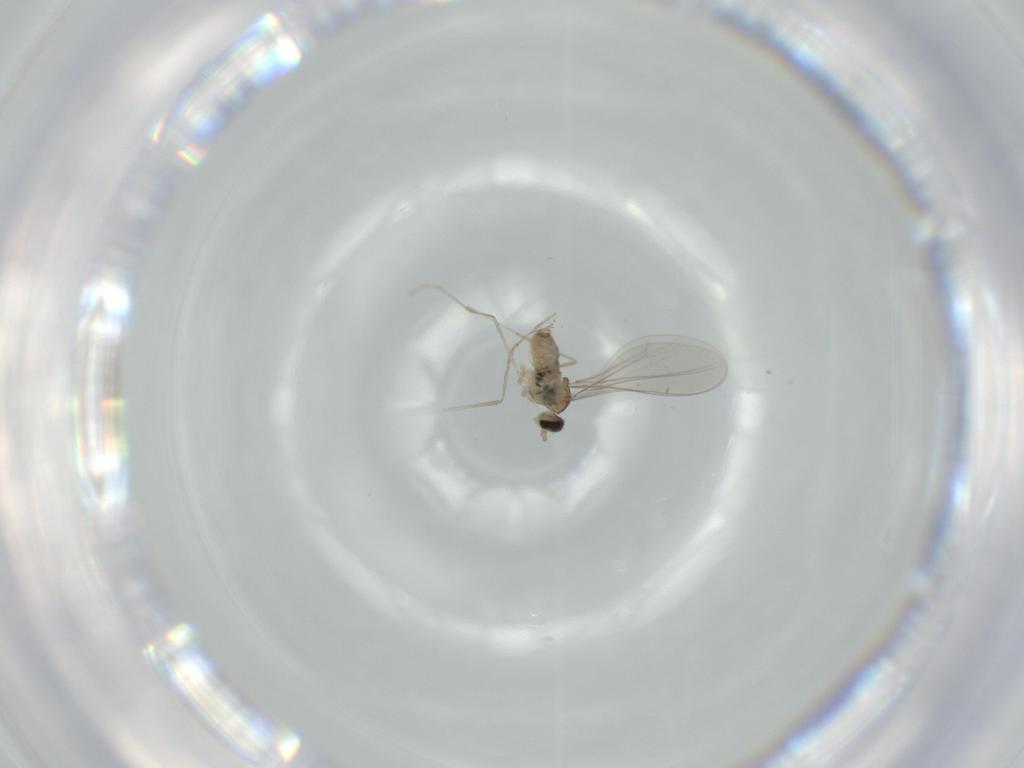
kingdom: Animalia
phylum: Arthropoda
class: Insecta
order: Diptera
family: Cecidomyiidae
